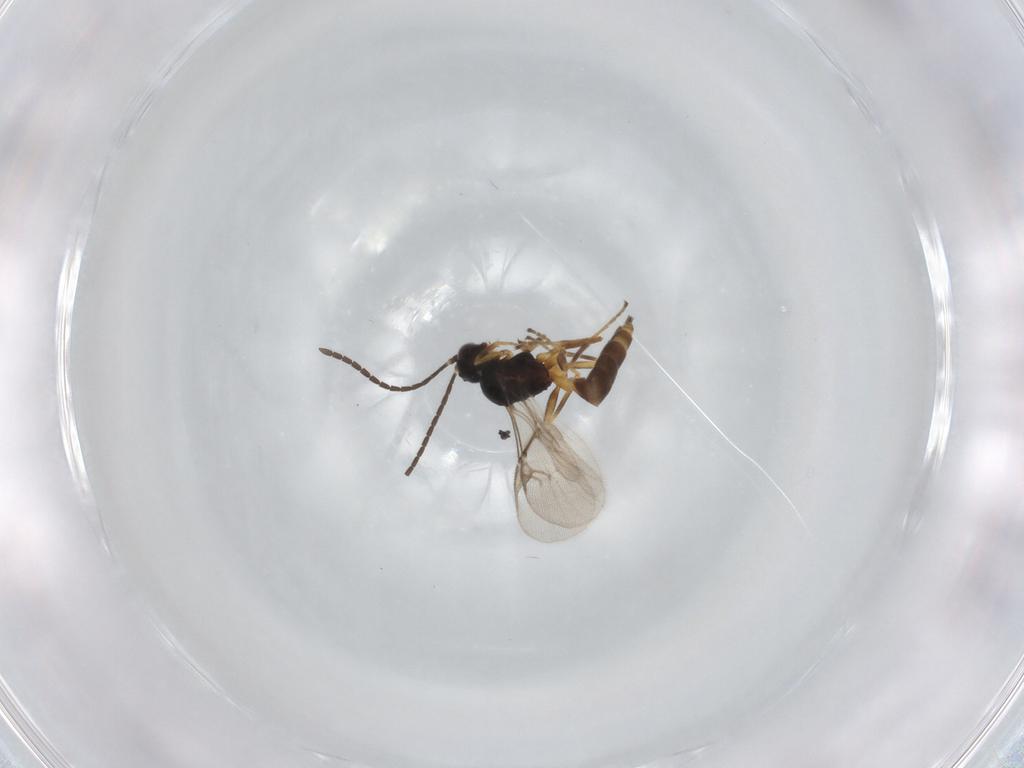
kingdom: Animalia
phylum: Arthropoda
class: Insecta
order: Hymenoptera
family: Braconidae
